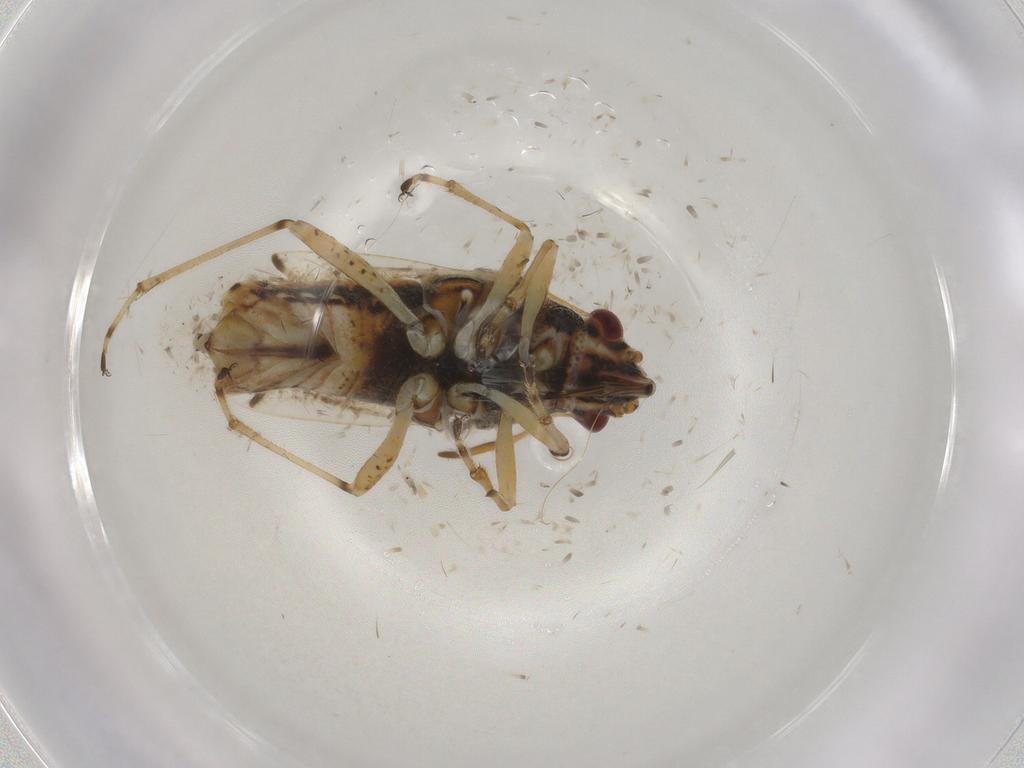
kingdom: Animalia
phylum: Arthropoda
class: Insecta
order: Hemiptera
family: Lygaeidae
